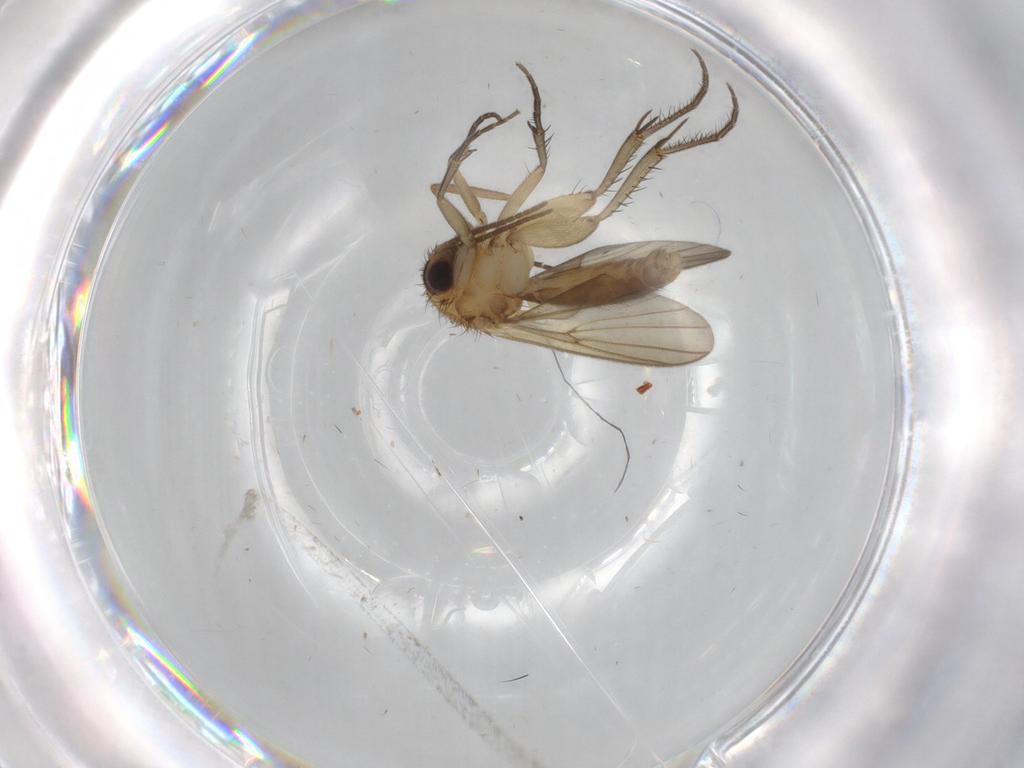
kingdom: Animalia
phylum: Arthropoda
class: Insecta
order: Diptera
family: Mycetophilidae
